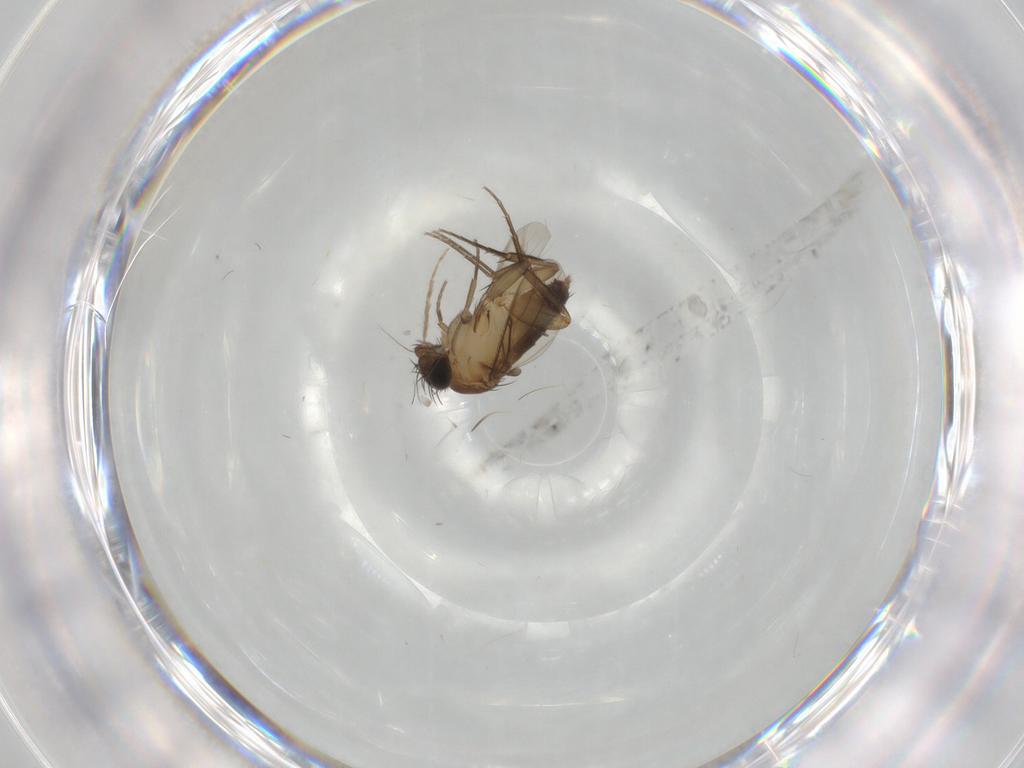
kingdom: Animalia
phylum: Arthropoda
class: Insecta
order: Diptera
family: Phoridae
